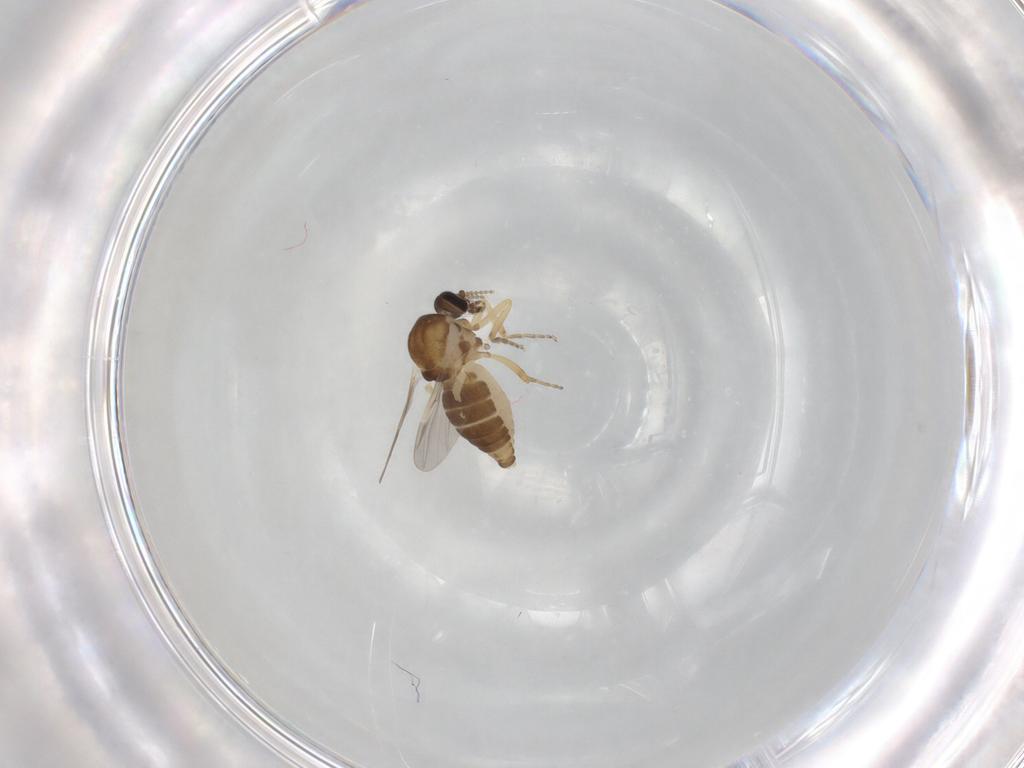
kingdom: Animalia
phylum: Arthropoda
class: Insecta
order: Diptera
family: Ceratopogonidae
